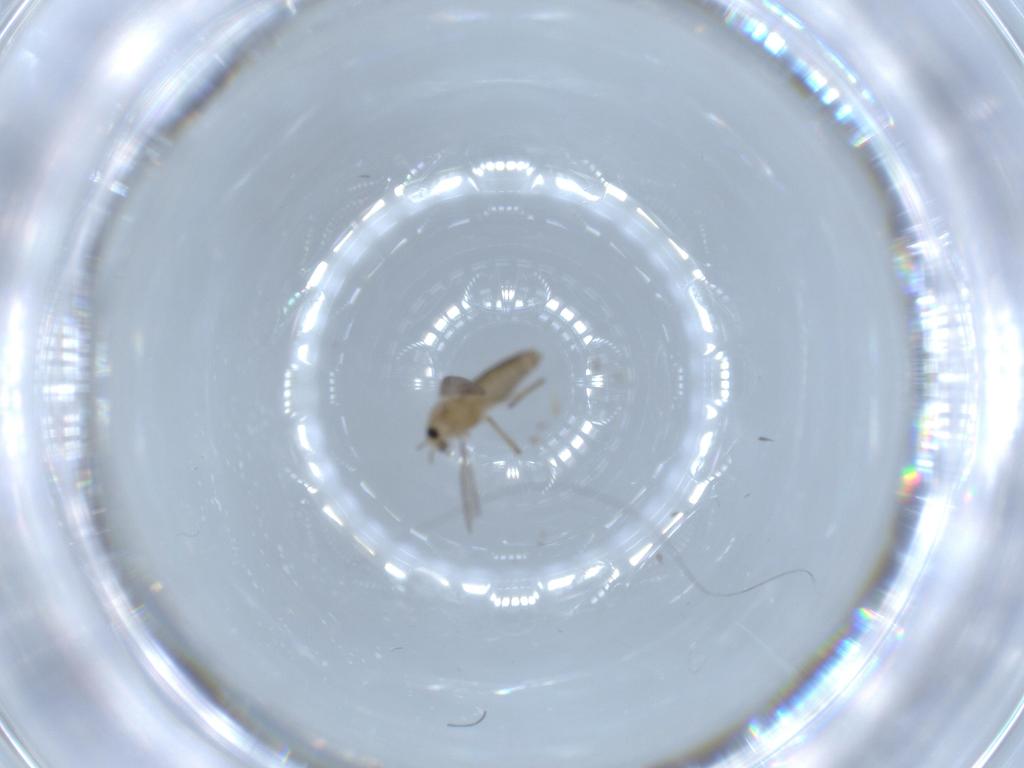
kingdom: Animalia
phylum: Arthropoda
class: Insecta
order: Diptera
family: Chironomidae
